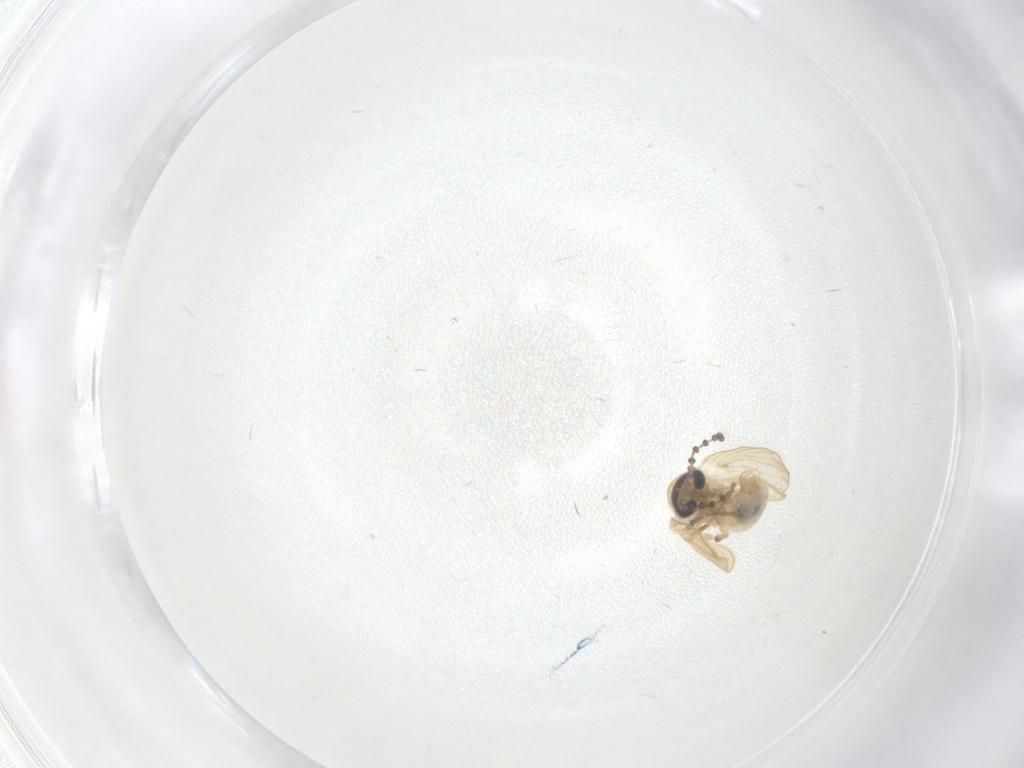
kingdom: Animalia
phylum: Arthropoda
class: Insecta
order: Diptera
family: Psychodidae
